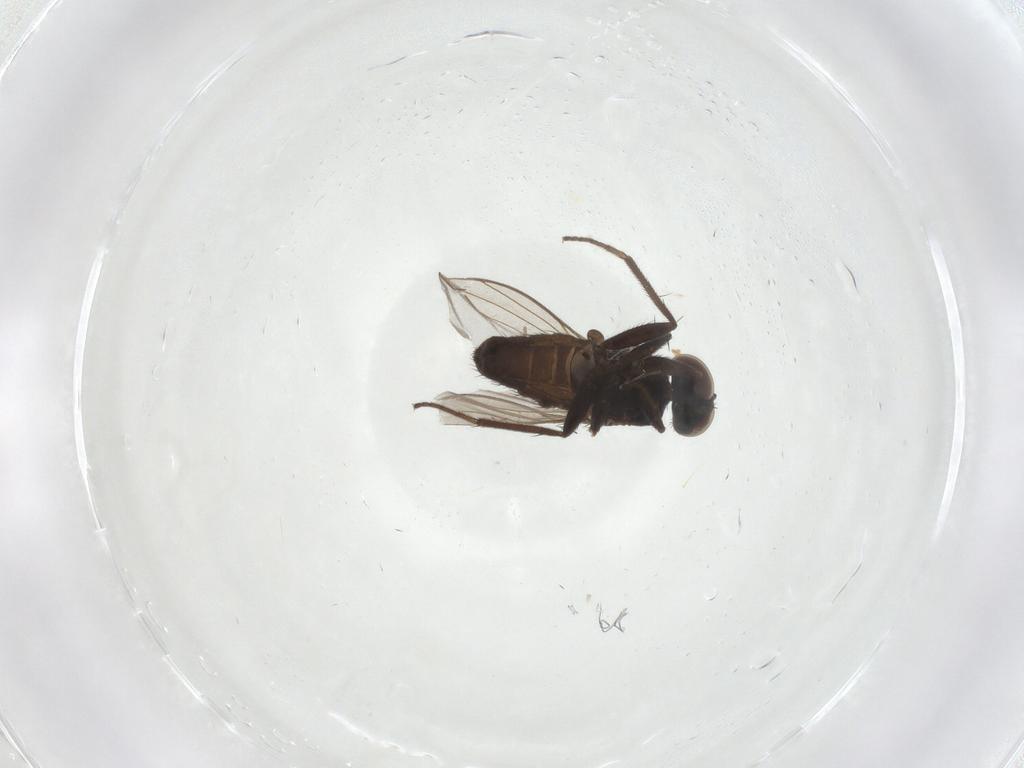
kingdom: Animalia
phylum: Arthropoda
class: Insecta
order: Diptera
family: Dolichopodidae
